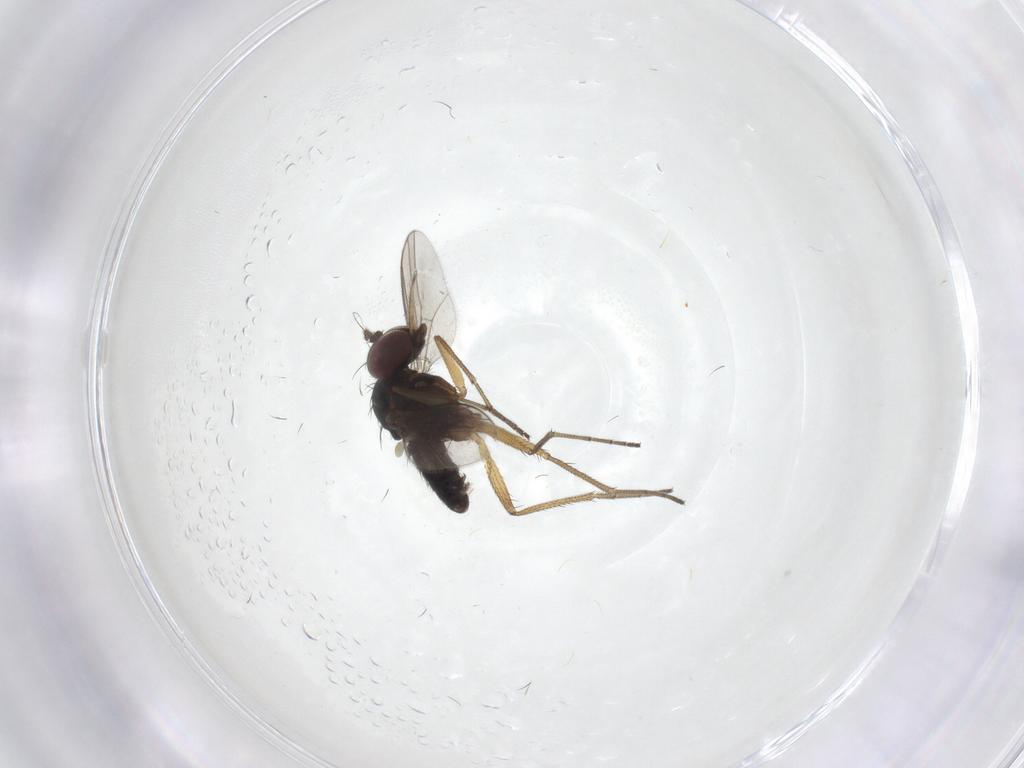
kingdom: Animalia
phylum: Arthropoda
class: Insecta
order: Diptera
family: Dolichopodidae
